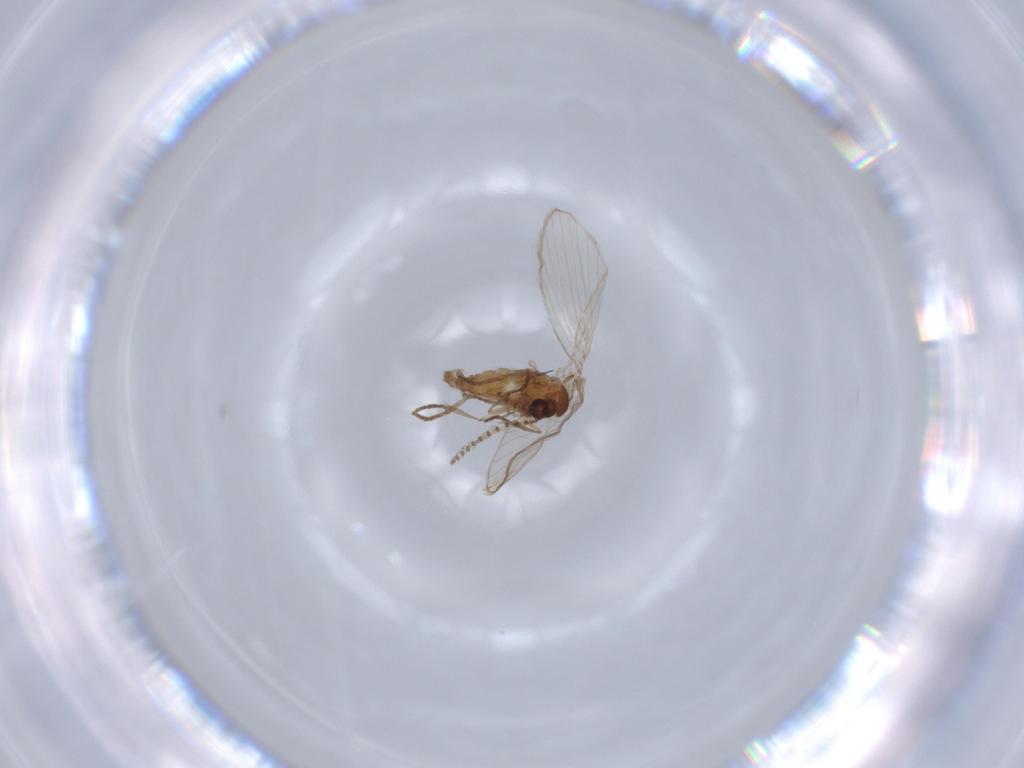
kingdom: Animalia
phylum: Arthropoda
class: Insecta
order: Diptera
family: Psychodidae
